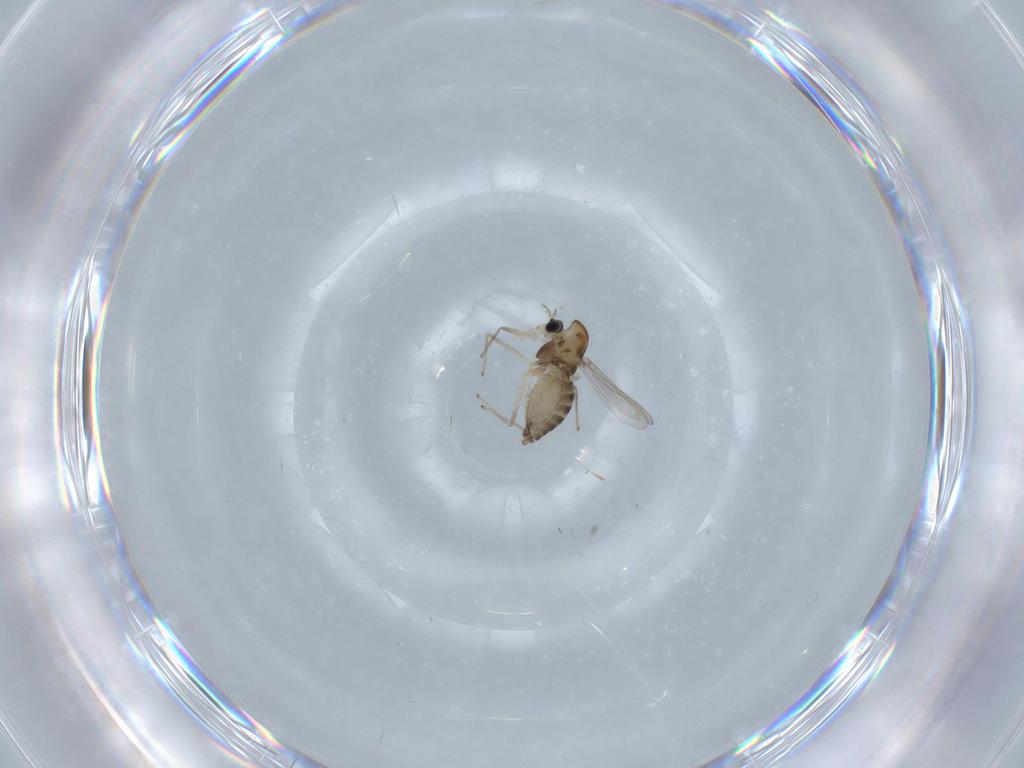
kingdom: Animalia
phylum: Arthropoda
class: Insecta
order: Diptera
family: Chironomidae
